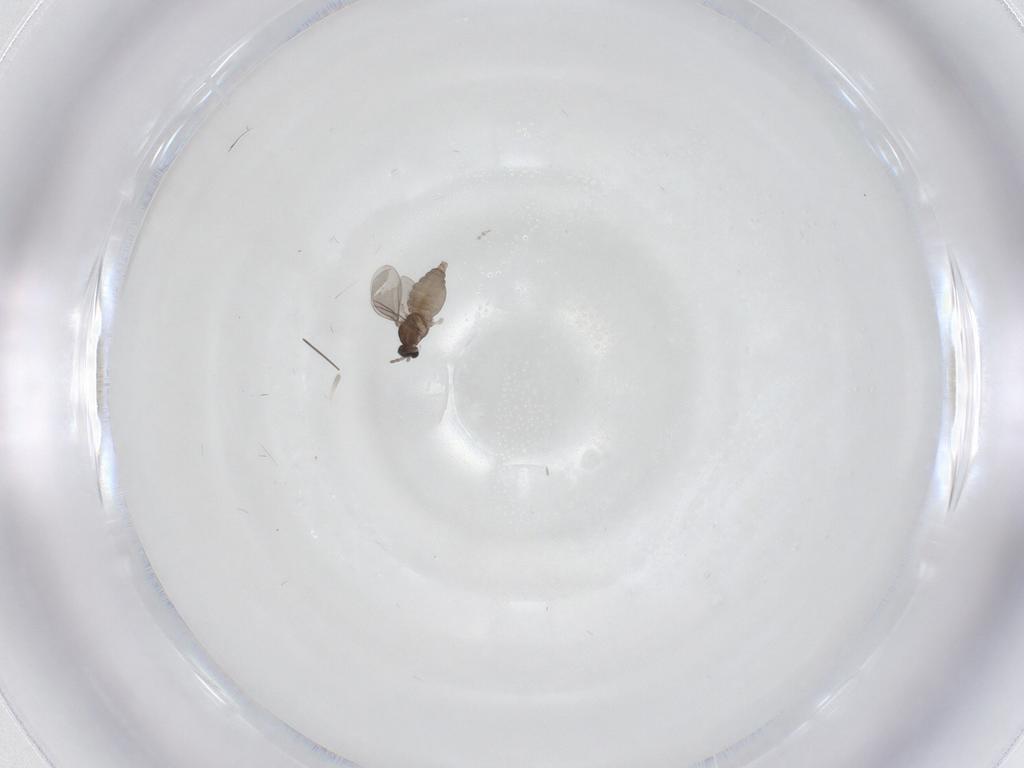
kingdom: Animalia
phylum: Arthropoda
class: Insecta
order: Diptera
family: Cecidomyiidae
